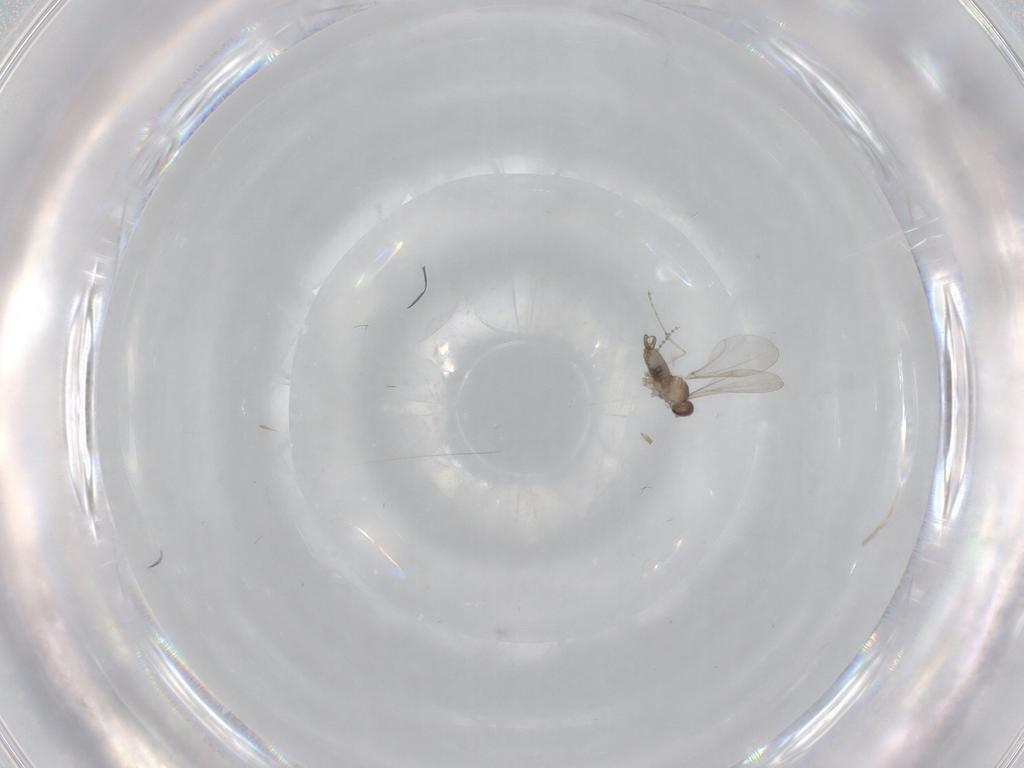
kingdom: Animalia
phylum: Arthropoda
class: Insecta
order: Diptera
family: Cecidomyiidae
